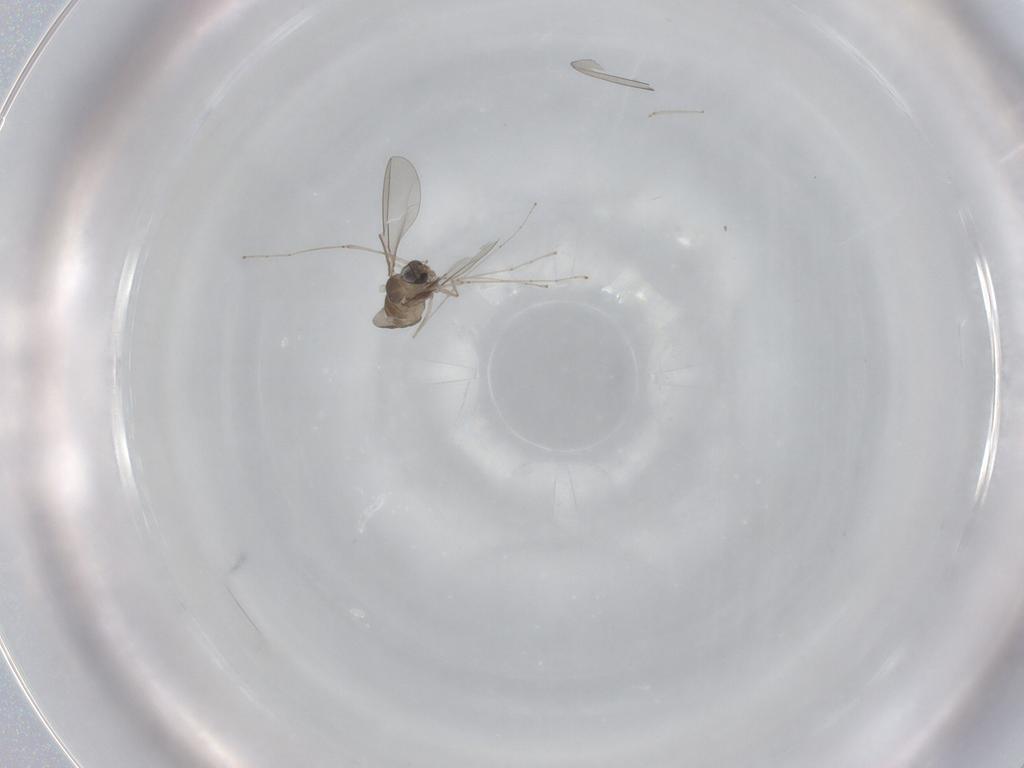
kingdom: Animalia
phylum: Arthropoda
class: Insecta
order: Diptera
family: Cecidomyiidae
